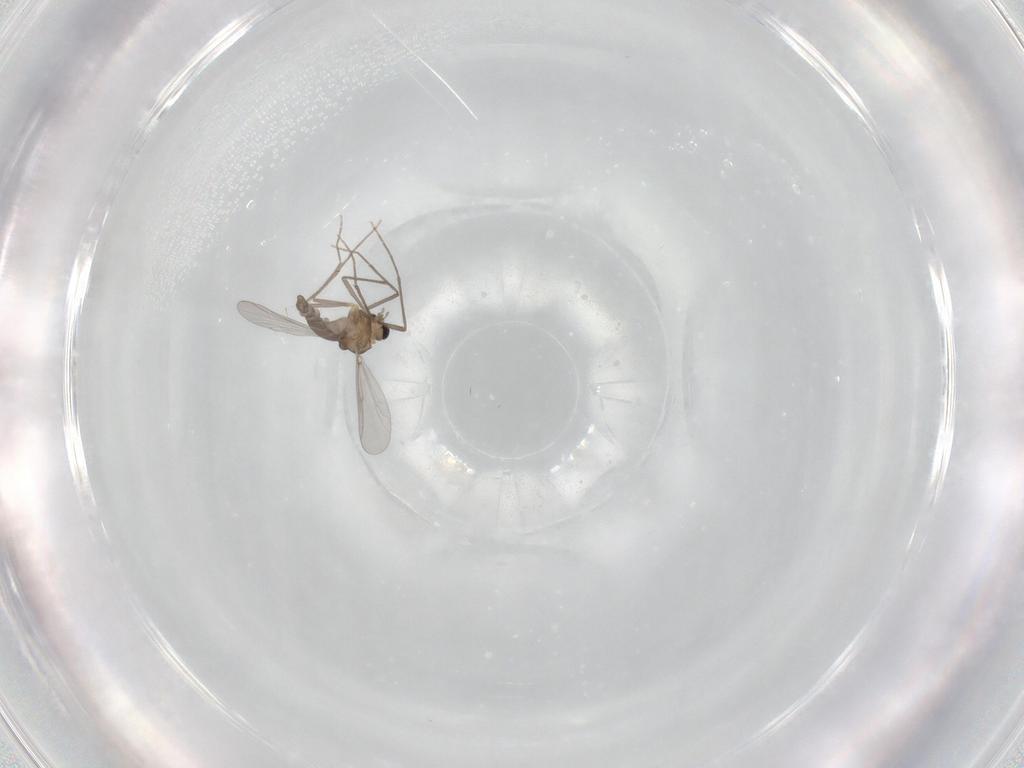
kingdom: Animalia
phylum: Arthropoda
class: Insecta
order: Diptera
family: Chironomidae
